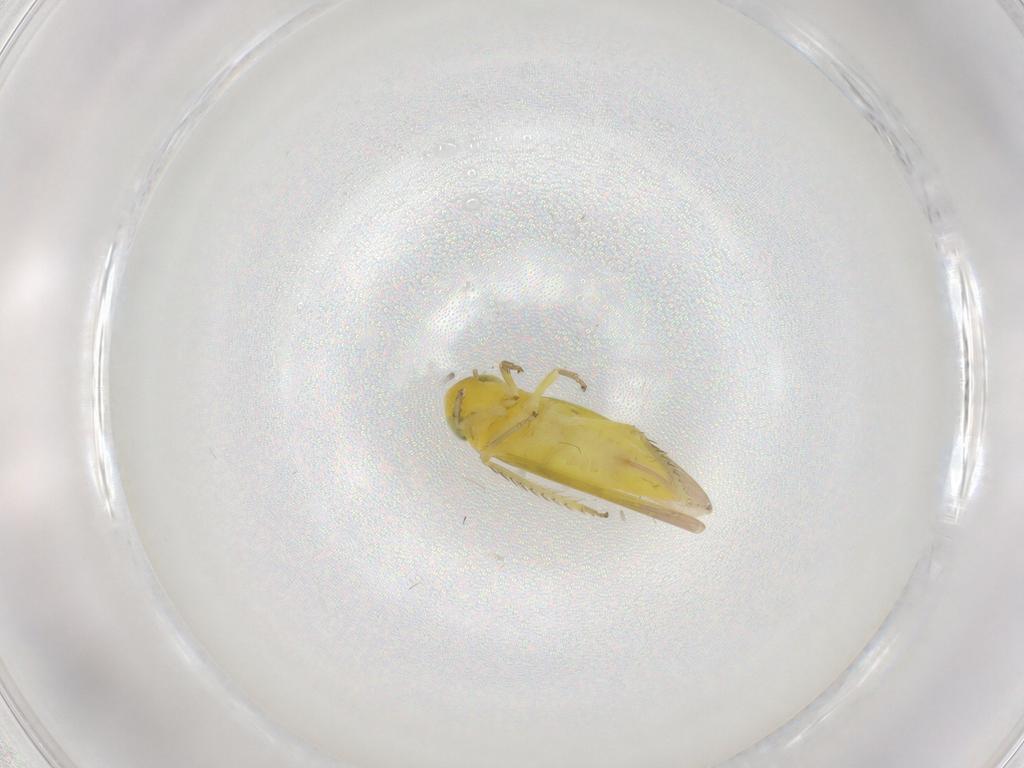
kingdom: Animalia
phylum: Arthropoda
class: Insecta
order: Hemiptera
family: Cicadellidae
